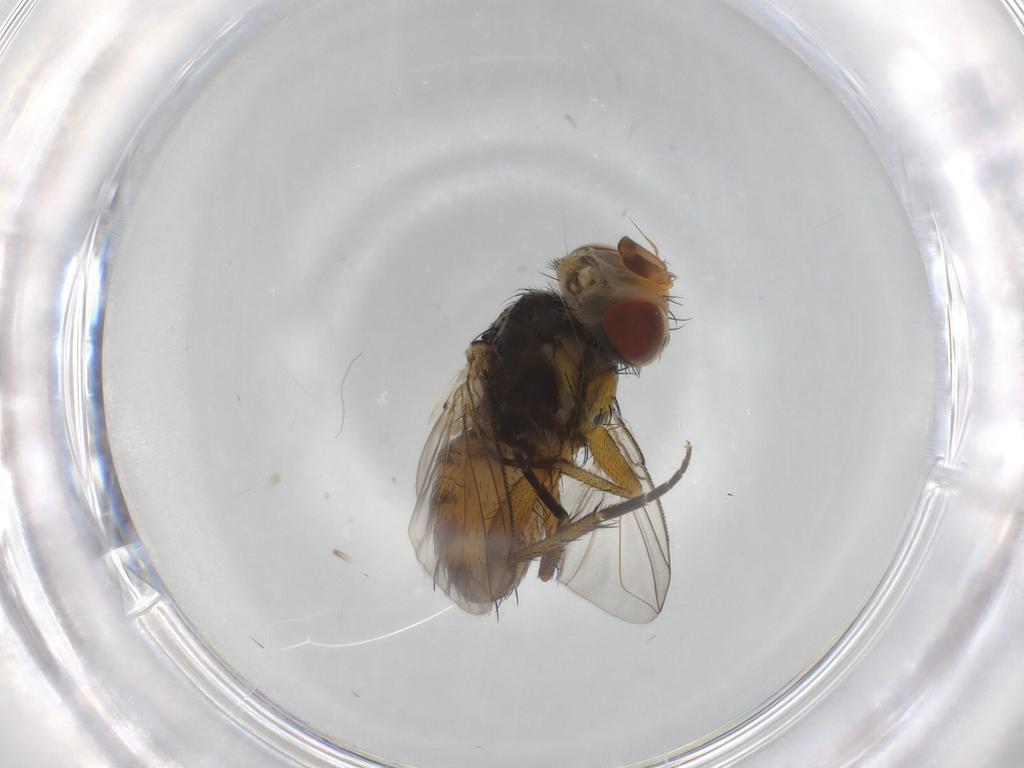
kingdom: Animalia
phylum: Arthropoda
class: Insecta
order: Diptera
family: Tachinidae
